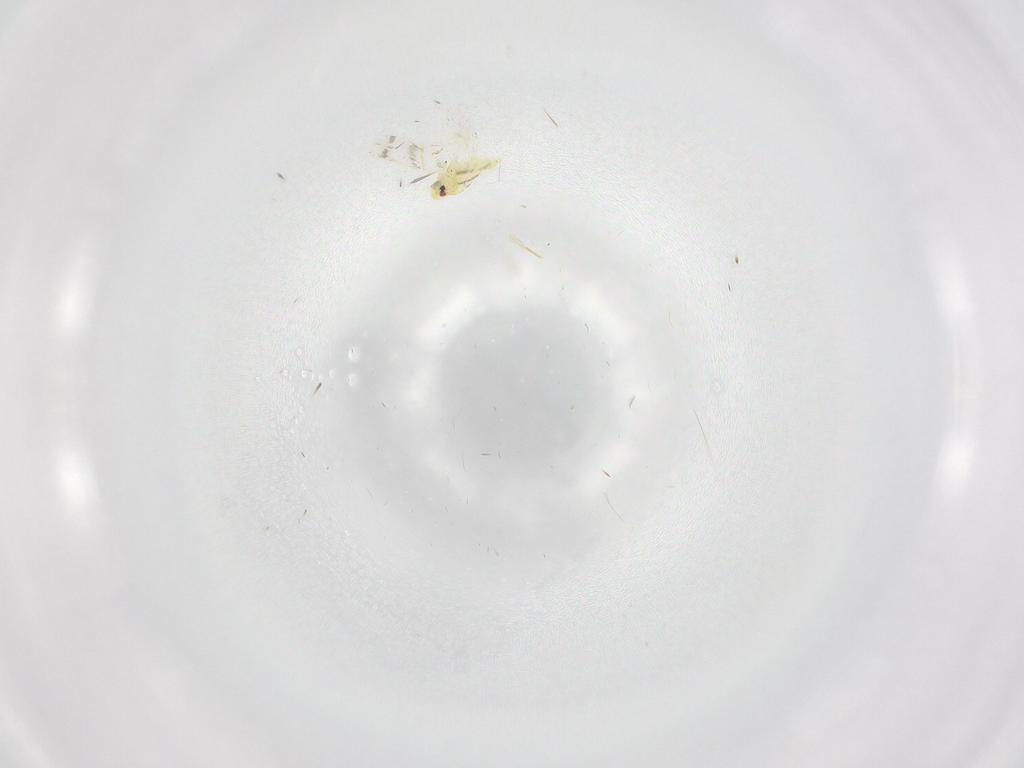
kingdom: Animalia
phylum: Arthropoda
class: Insecta
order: Hemiptera
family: Aleyrodidae
